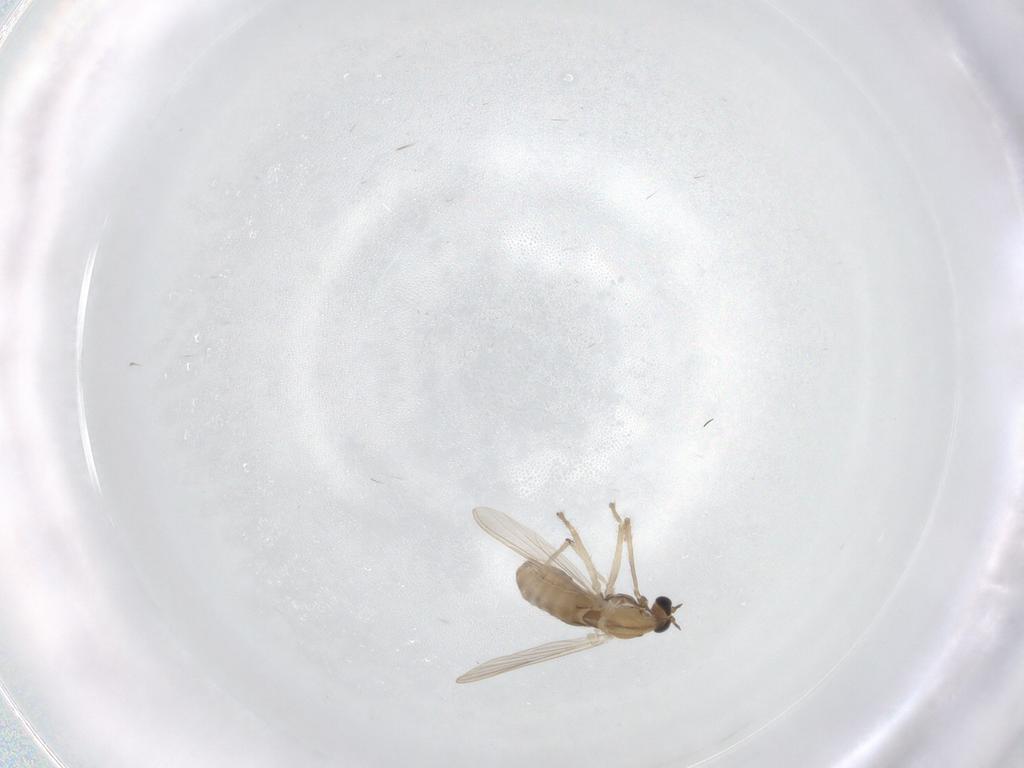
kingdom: Animalia
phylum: Arthropoda
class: Insecta
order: Diptera
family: Chironomidae
